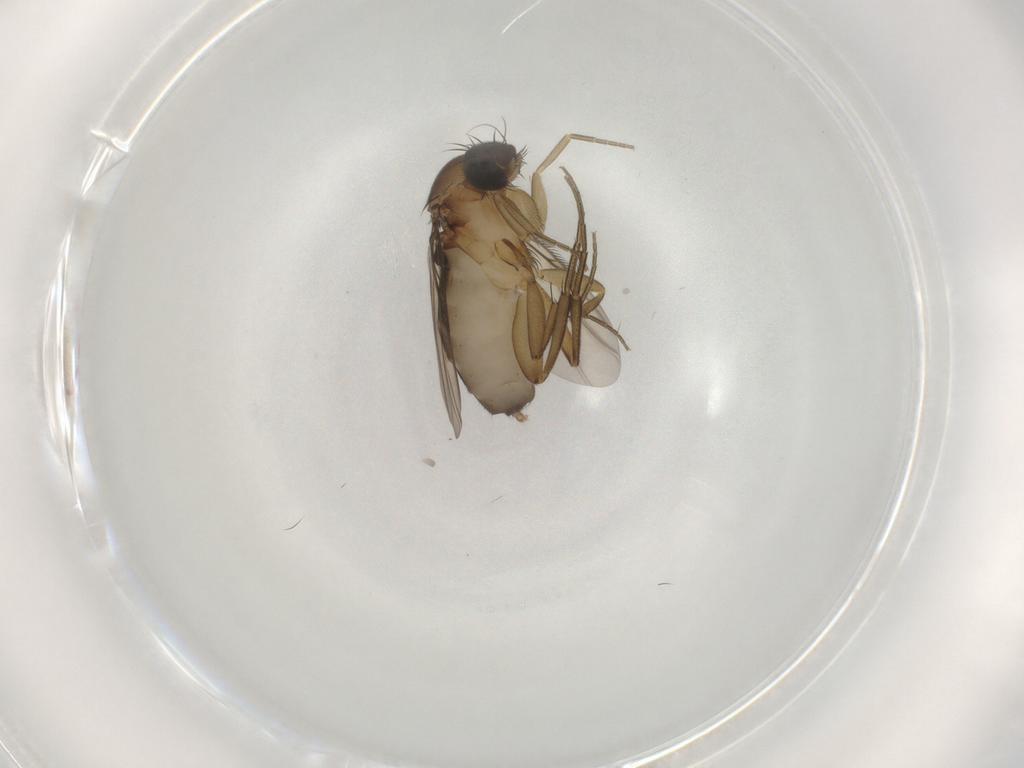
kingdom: Animalia
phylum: Arthropoda
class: Insecta
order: Diptera
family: Phoridae
